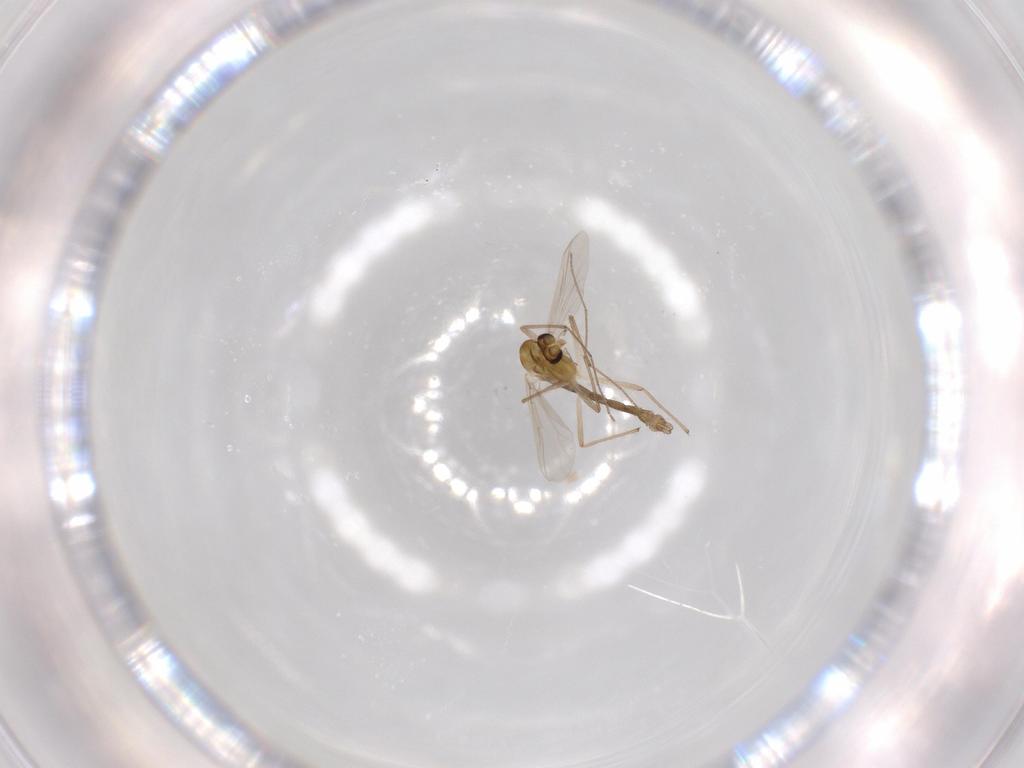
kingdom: Animalia
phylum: Arthropoda
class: Insecta
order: Diptera
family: Chironomidae
